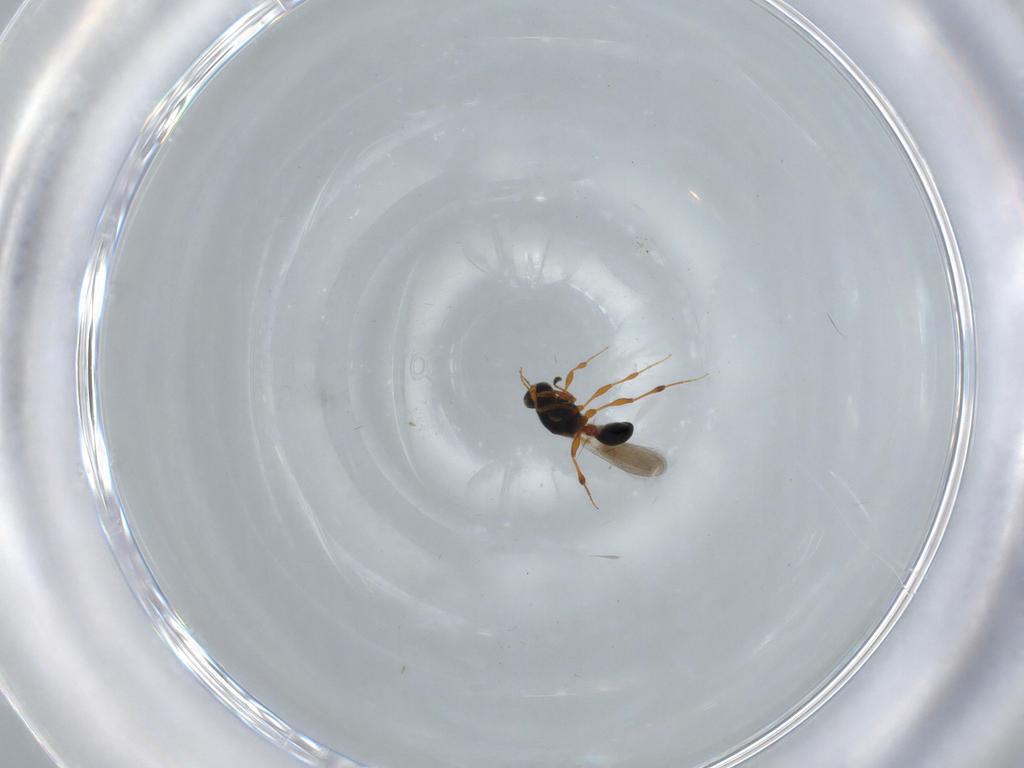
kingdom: Animalia
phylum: Arthropoda
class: Insecta
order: Hymenoptera
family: Platygastridae
